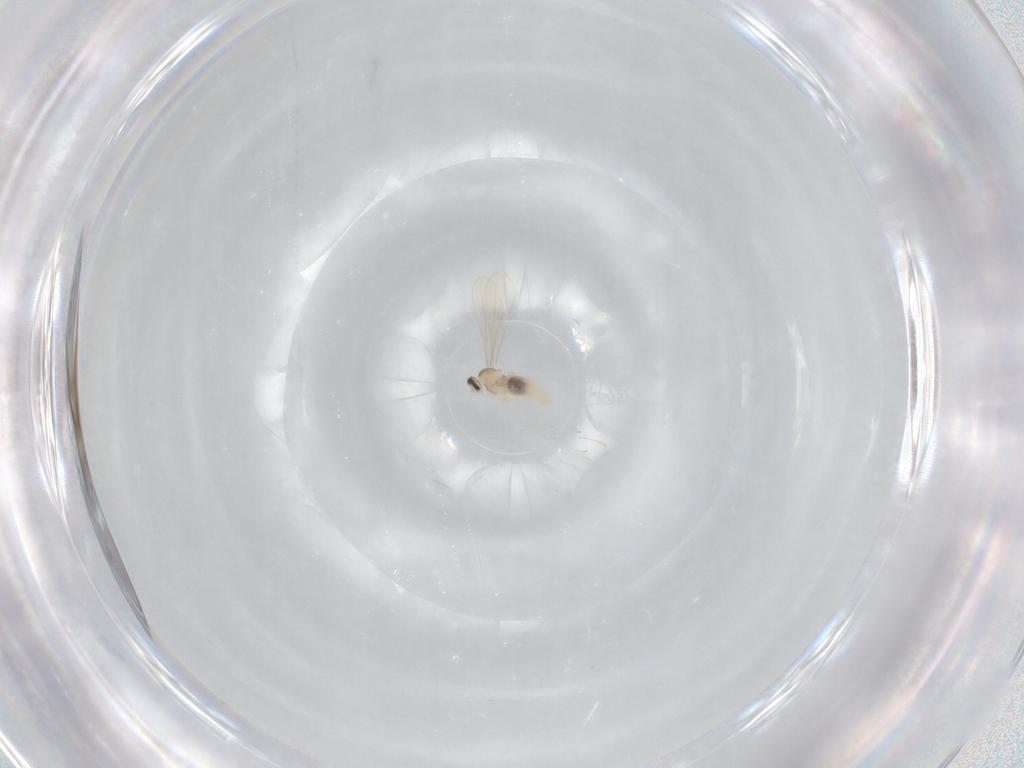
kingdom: Animalia
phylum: Arthropoda
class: Insecta
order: Diptera
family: Cecidomyiidae
